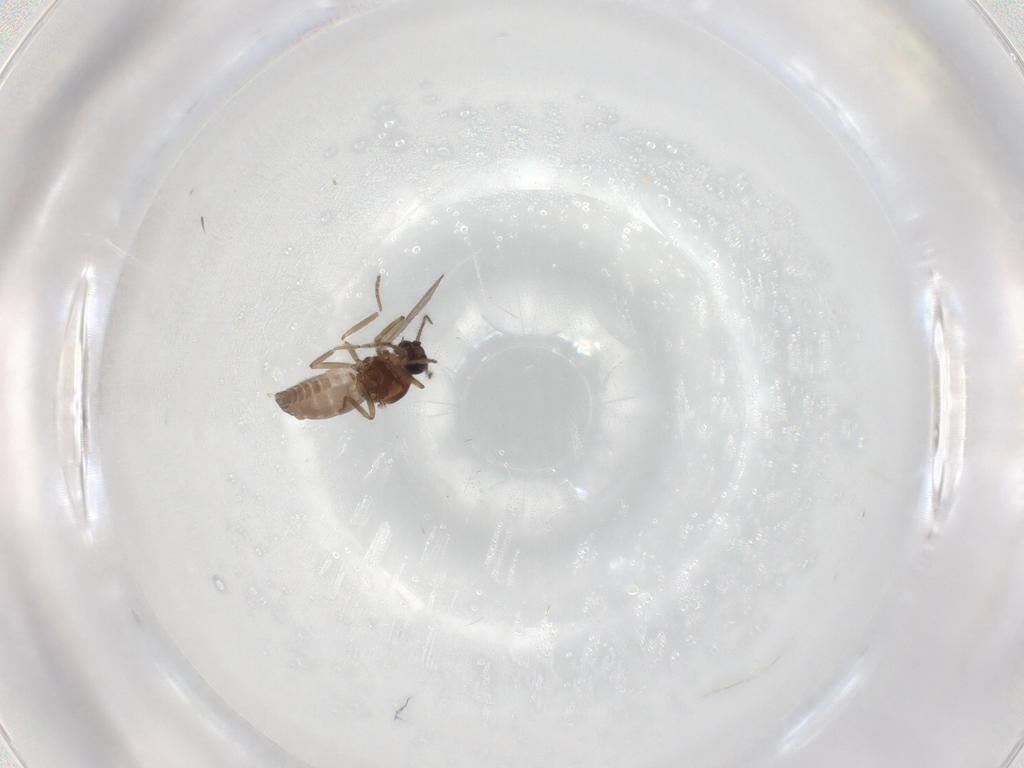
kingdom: Animalia
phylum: Arthropoda
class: Insecta
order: Diptera
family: Ceratopogonidae
